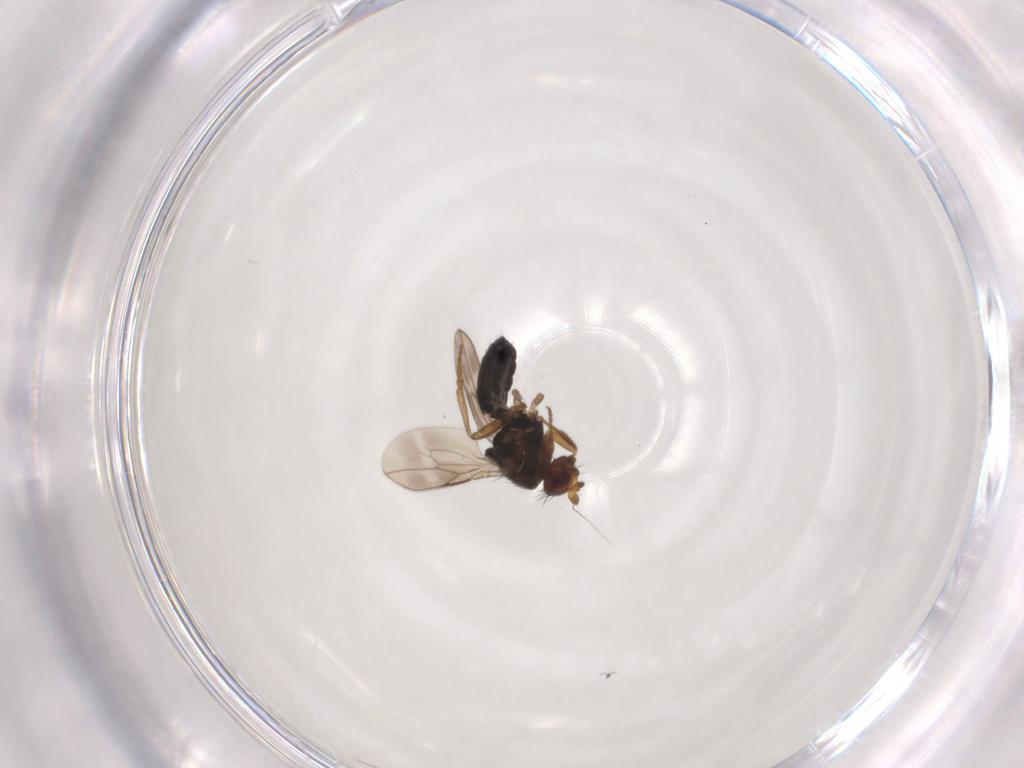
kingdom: Animalia
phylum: Arthropoda
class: Insecta
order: Diptera
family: Sphaeroceridae
